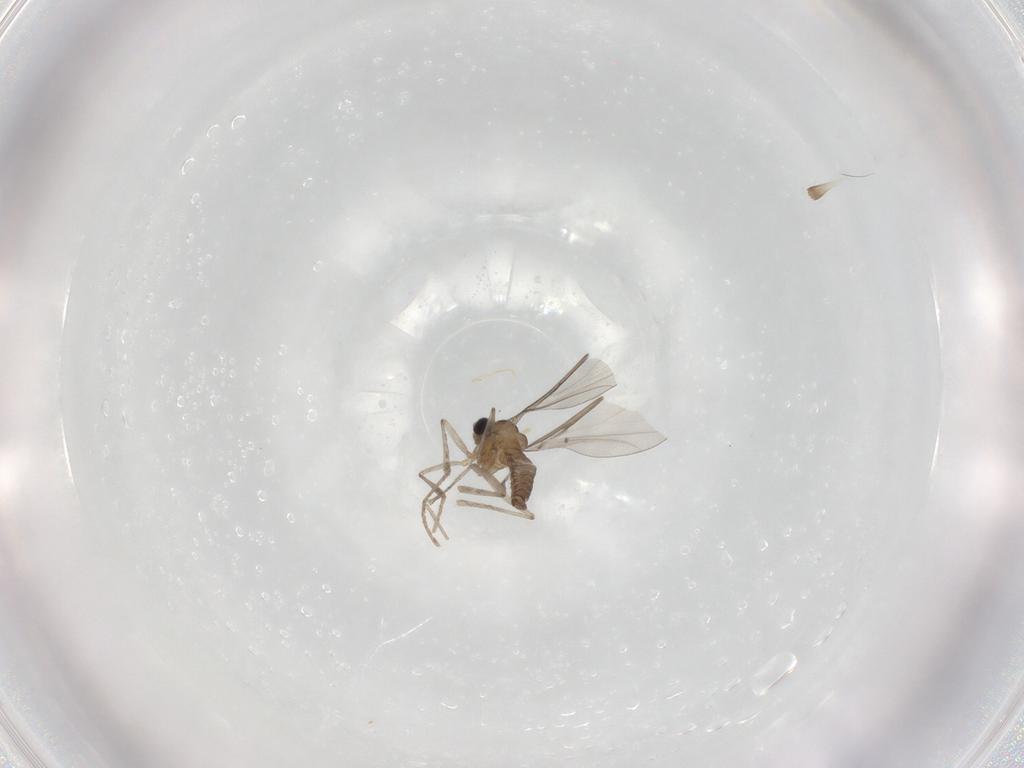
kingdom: Animalia
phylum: Arthropoda
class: Insecta
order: Diptera
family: Cecidomyiidae
